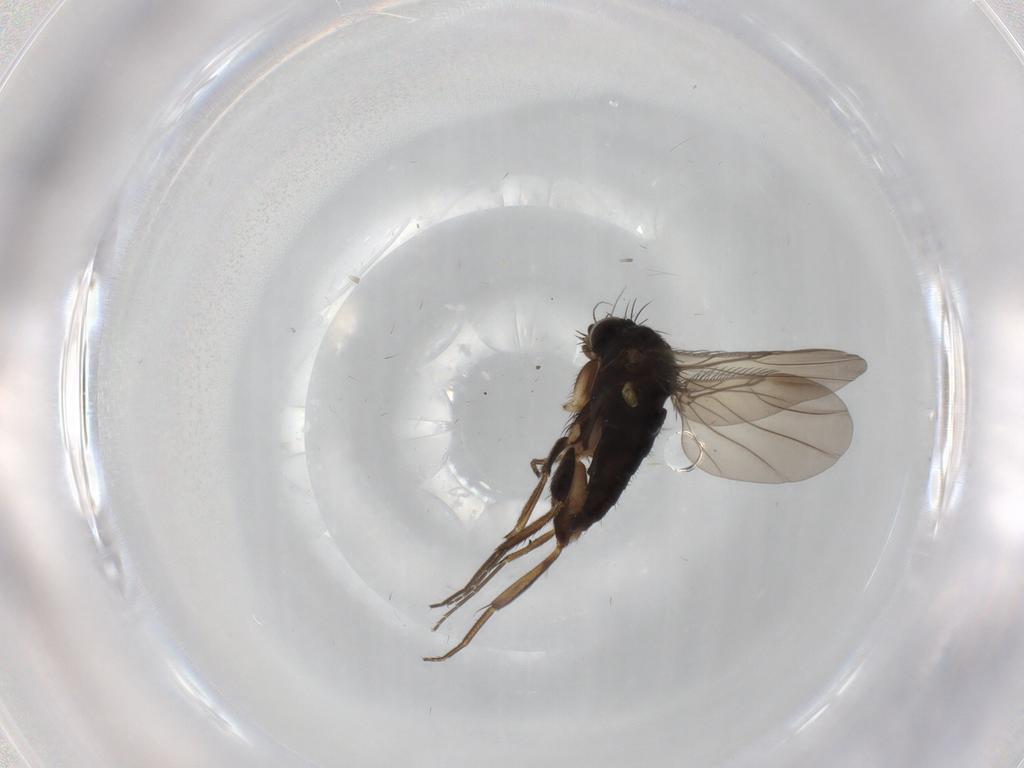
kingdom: Animalia
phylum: Arthropoda
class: Insecta
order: Diptera
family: Phoridae
